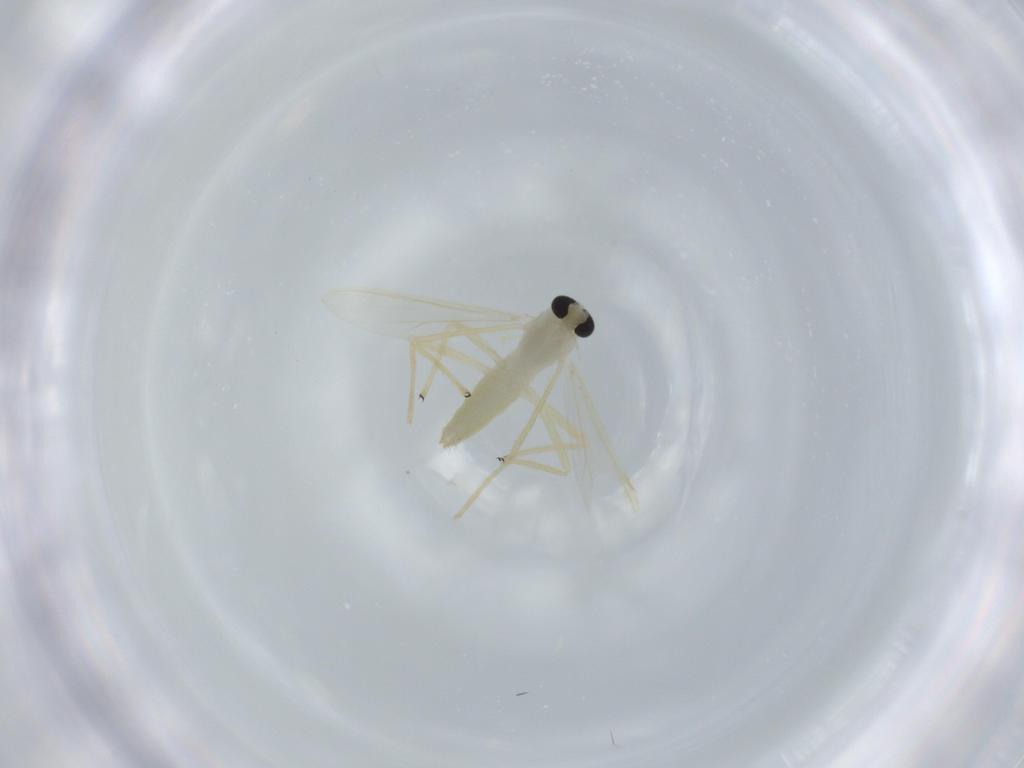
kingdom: Animalia
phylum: Arthropoda
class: Insecta
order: Diptera
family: Chironomidae
